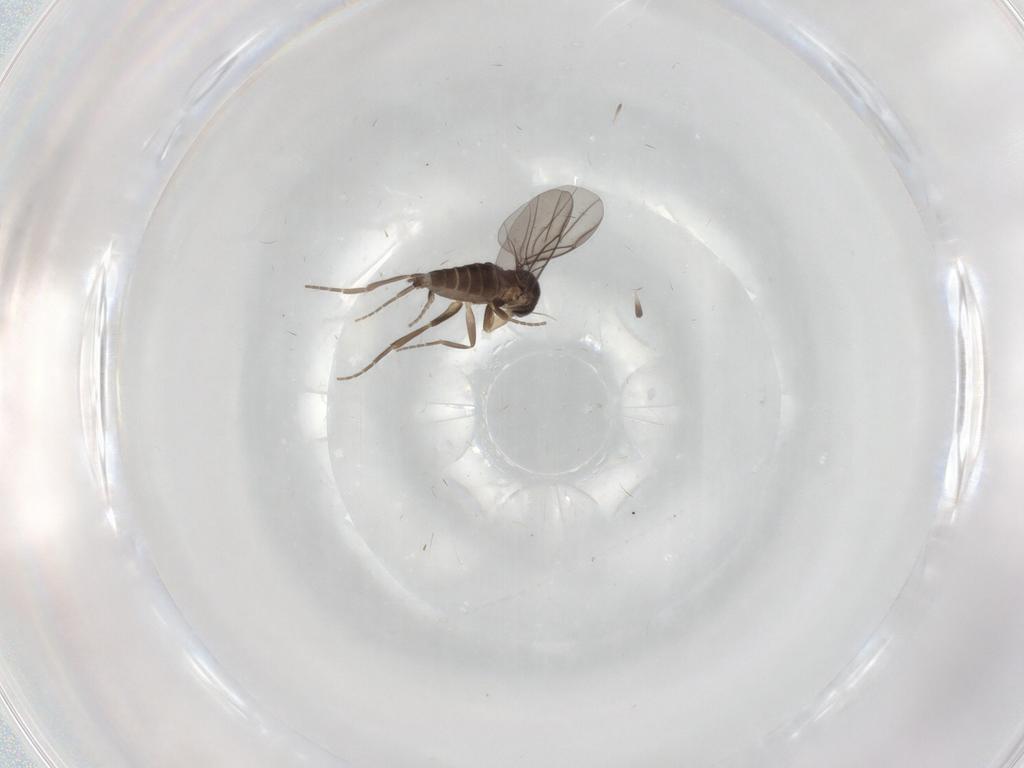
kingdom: Animalia
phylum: Arthropoda
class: Insecta
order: Diptera
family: Phoridae
